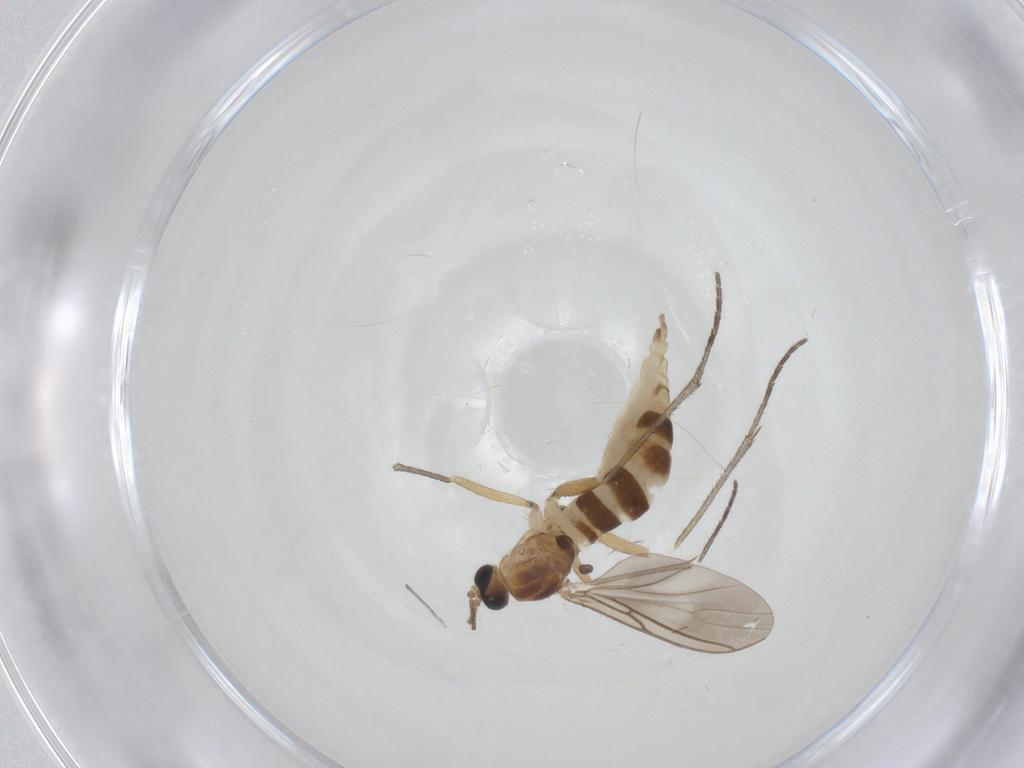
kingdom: Animalia
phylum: Arthropoda
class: Insecta
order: Diptera
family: Sciaridae
